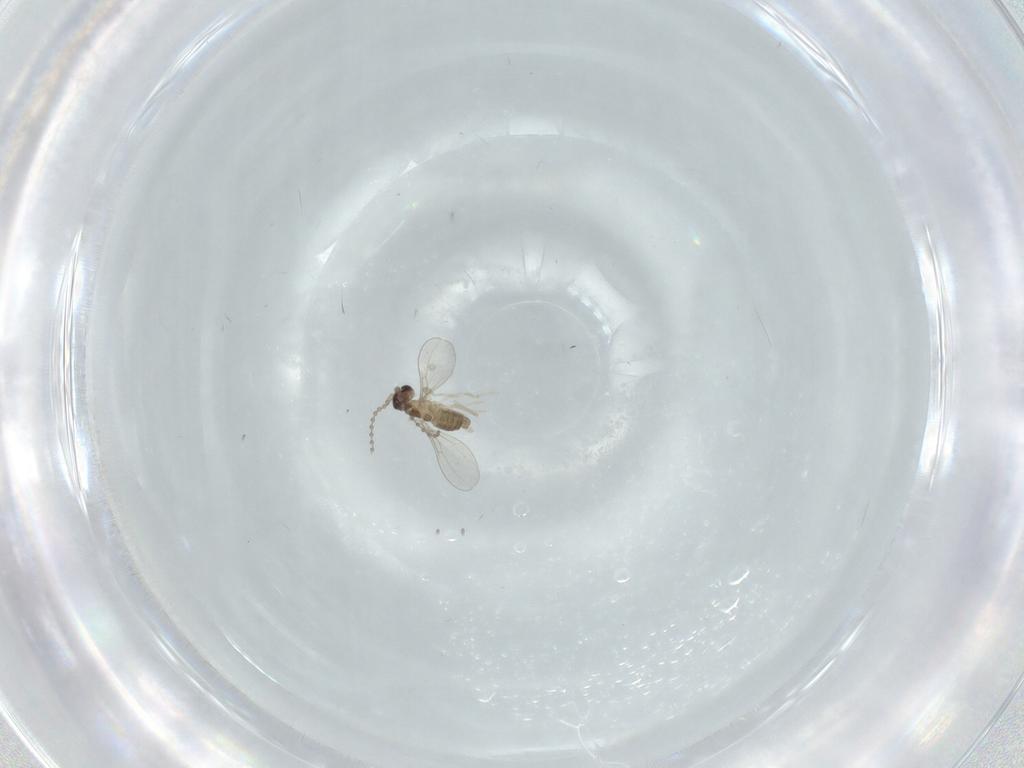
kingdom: Animalia
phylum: Arthropoda
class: Insecta
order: Diptera
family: Cecidomyiidae
